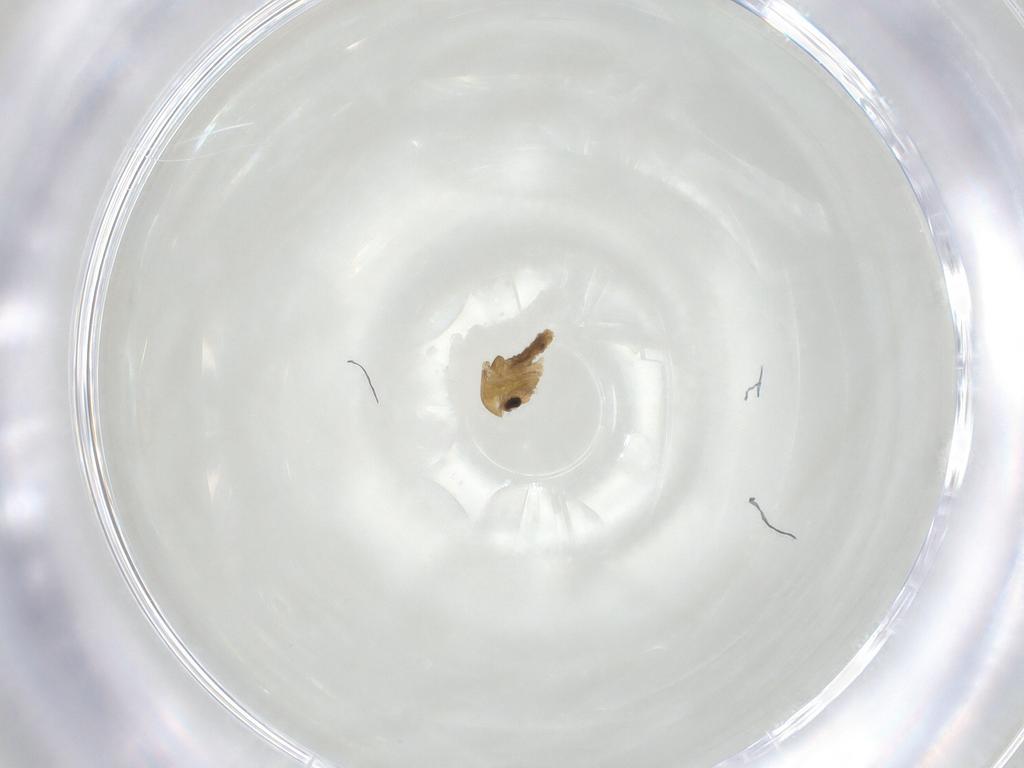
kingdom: Animalia
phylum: Arthropoda
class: Insecta
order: Diptera
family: Chironomidae
